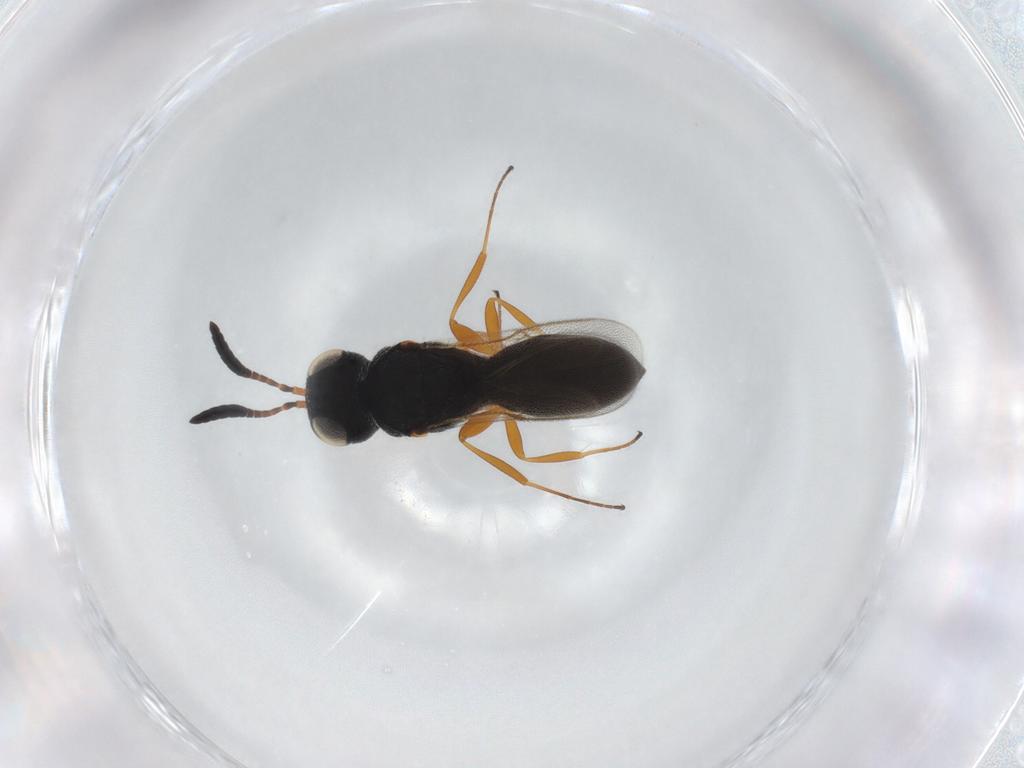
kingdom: Animalia
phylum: Arthropoda
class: Insecta
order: Hymenoptera
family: Scelionidae
